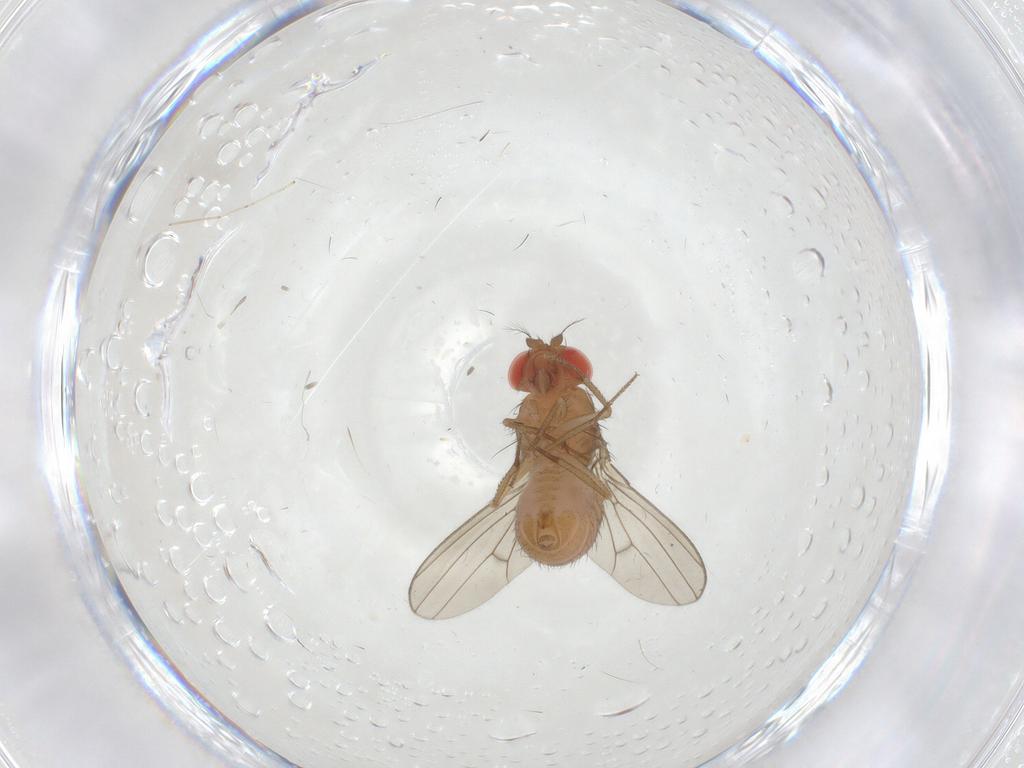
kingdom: Animalia
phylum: Arthropoda
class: Insecta
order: Diptera
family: Drosophilidae
